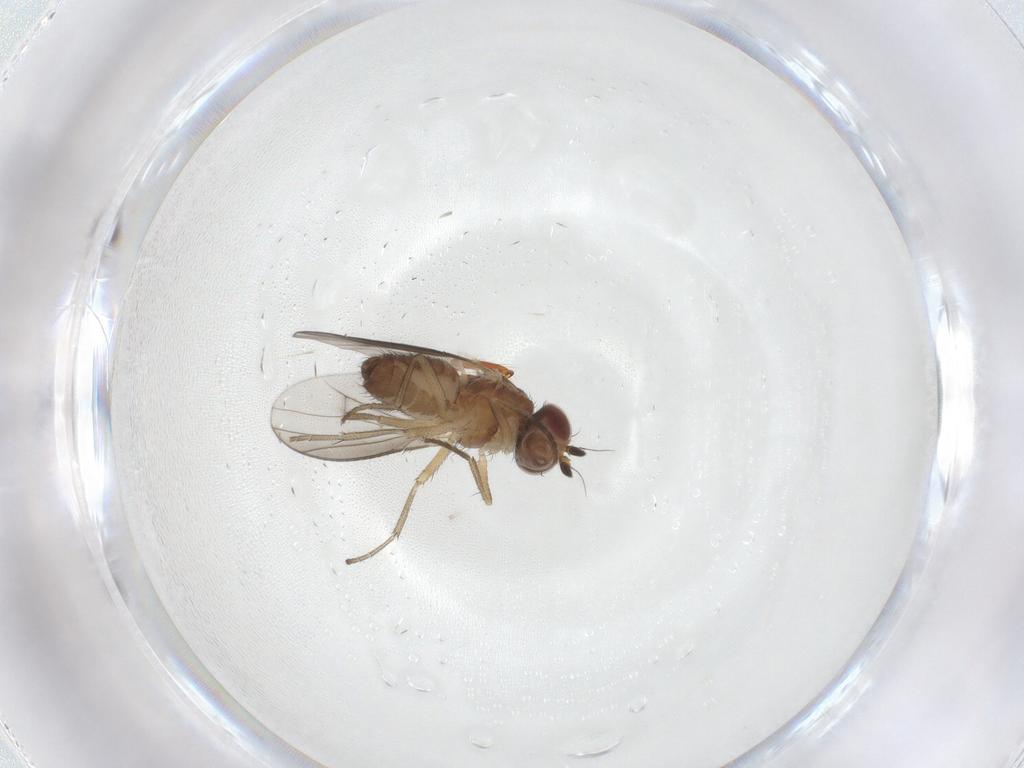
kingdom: Animalia
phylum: Arthropoda
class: Insecta
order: Diptera
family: Heleomyzidae
